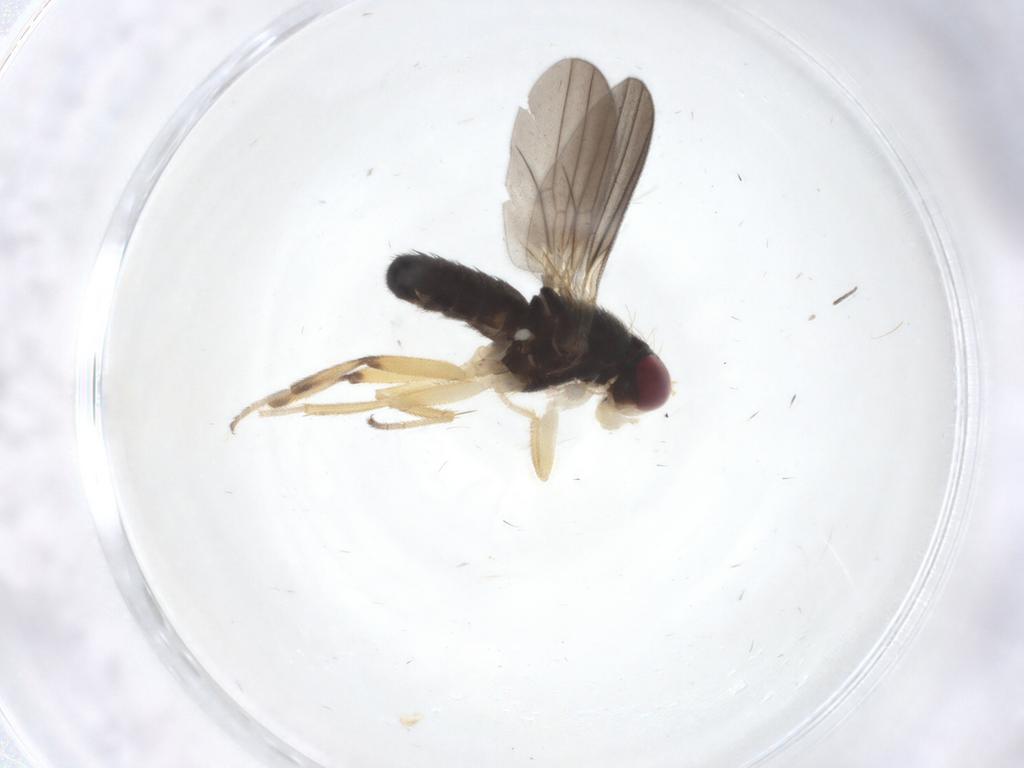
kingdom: Animalia
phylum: Arthropoda
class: Insecta
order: Diptera
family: Clusiidae
